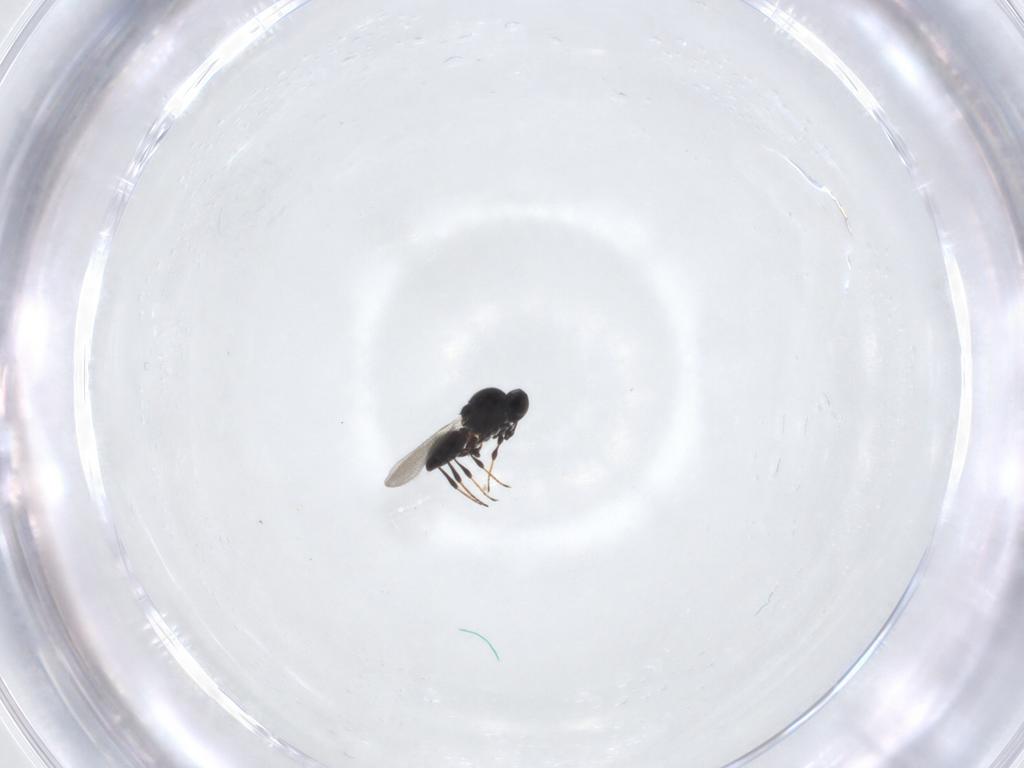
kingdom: Animalia
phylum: Arthropoda
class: Insecta
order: Hymenoptera
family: Platygastridae
